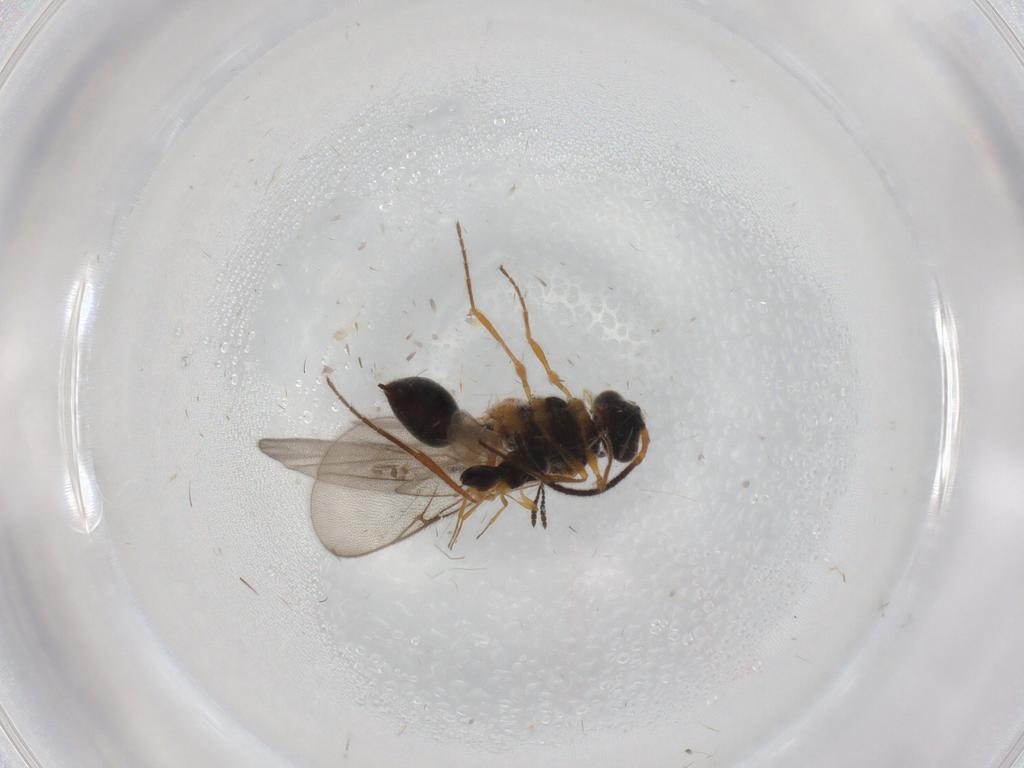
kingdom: Animalia
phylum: Arthropoda
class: Insecta
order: Hymenoptera
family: Scelionidae
